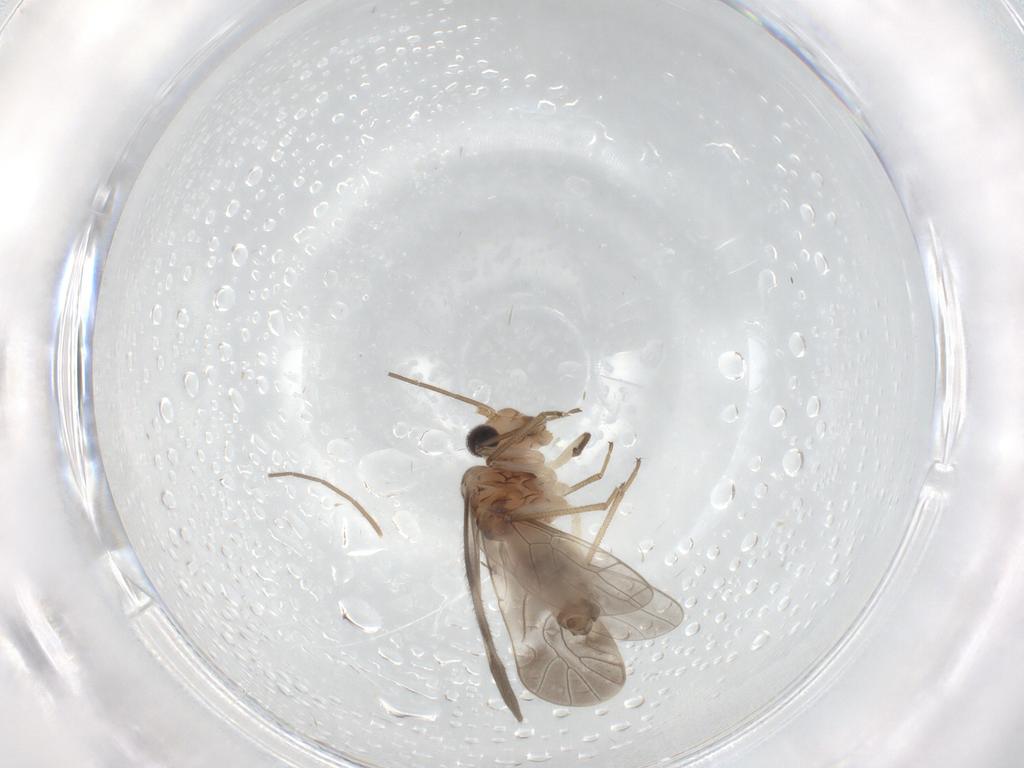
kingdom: Animalia
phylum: Arthropoda
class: Insecta
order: Psocodea
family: Caeciliusidae
